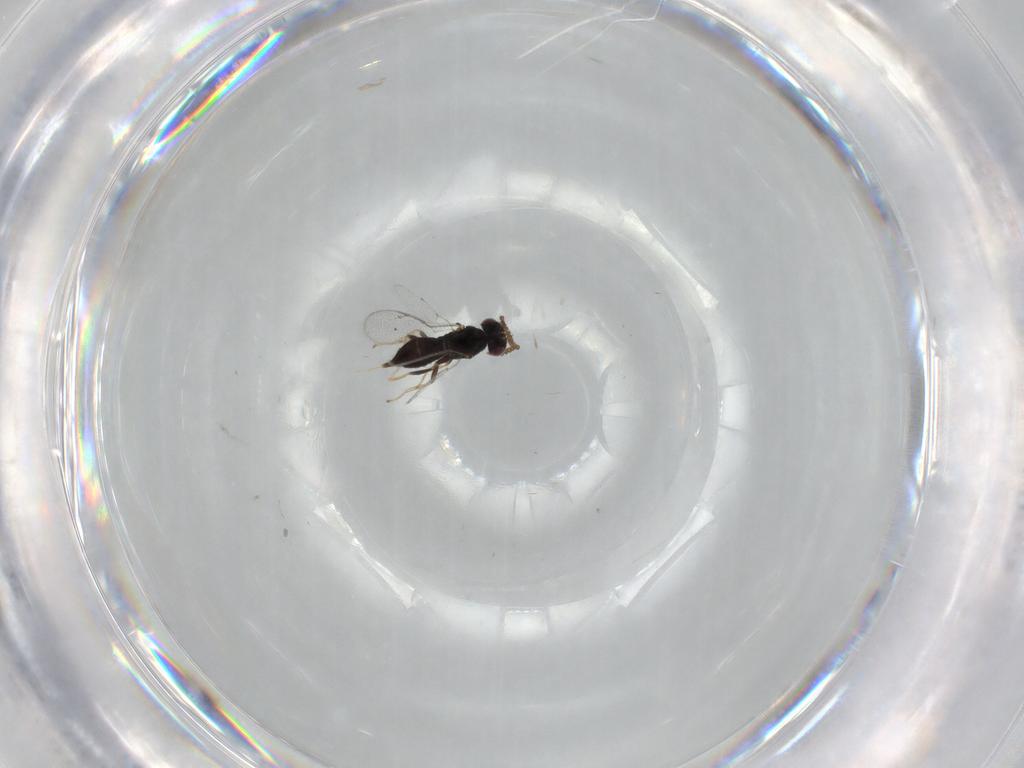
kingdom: Animalia
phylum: Arthropoda
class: Insecta
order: Hymenoptera
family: Pirenidae
